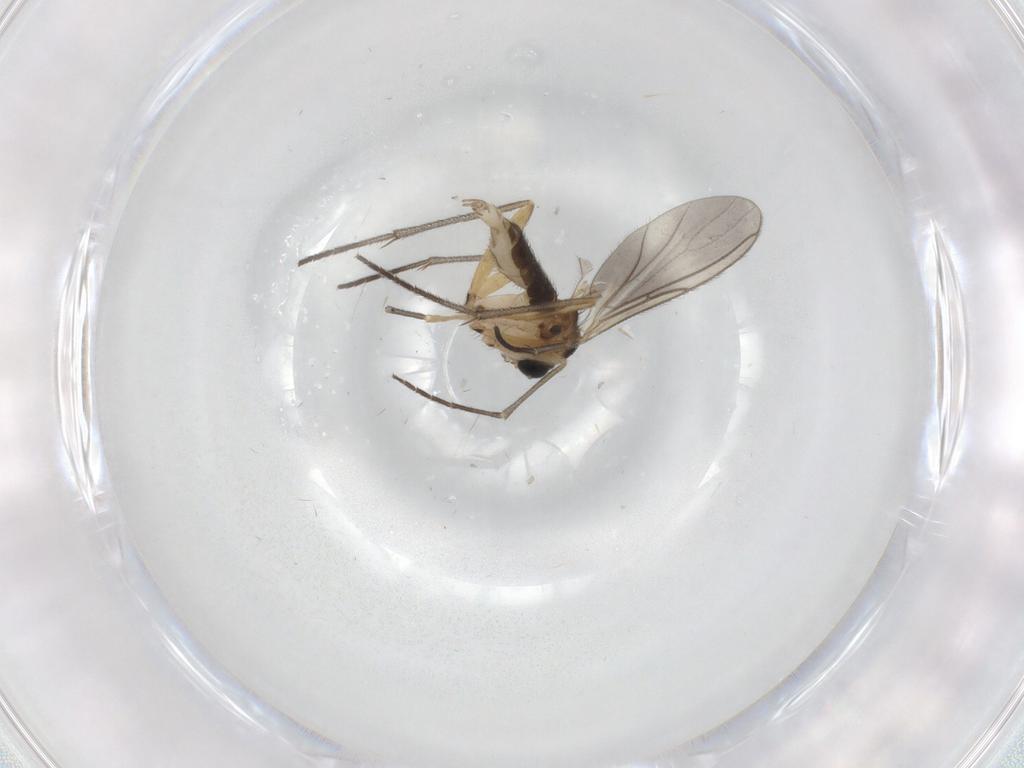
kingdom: Animalia
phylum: Arthropoda
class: Insecta
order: Diptera
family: Sciaridae
